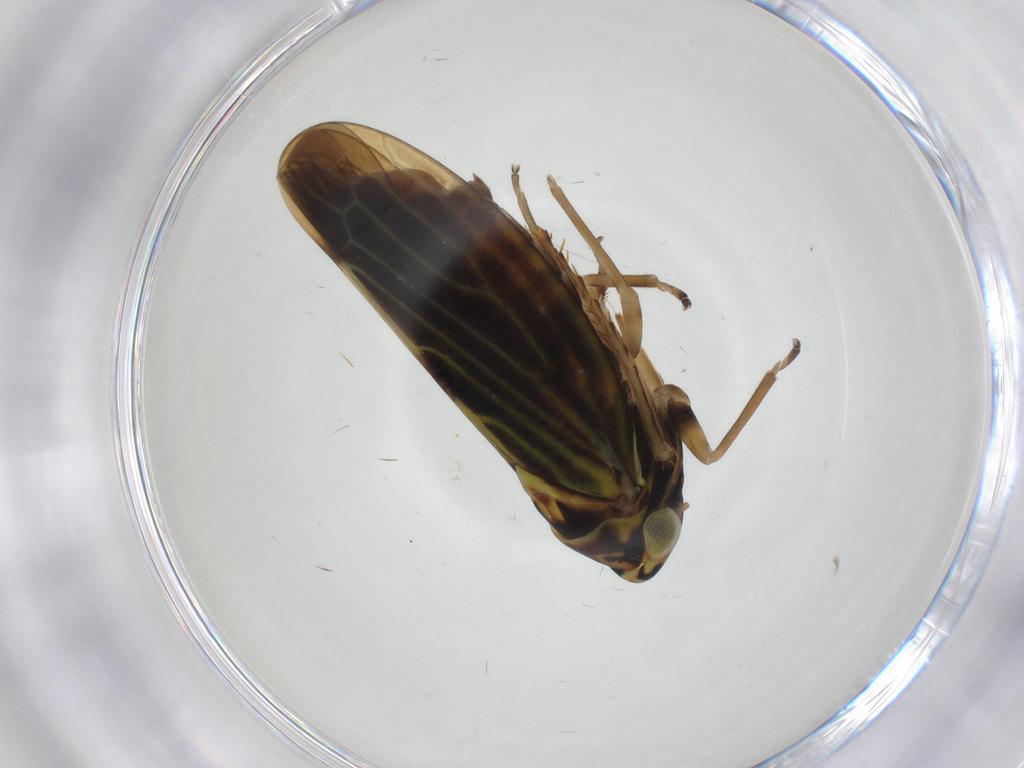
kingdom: Animalia
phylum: Arthropoda
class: Insecta
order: Hemiptera
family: Cicadellidae
